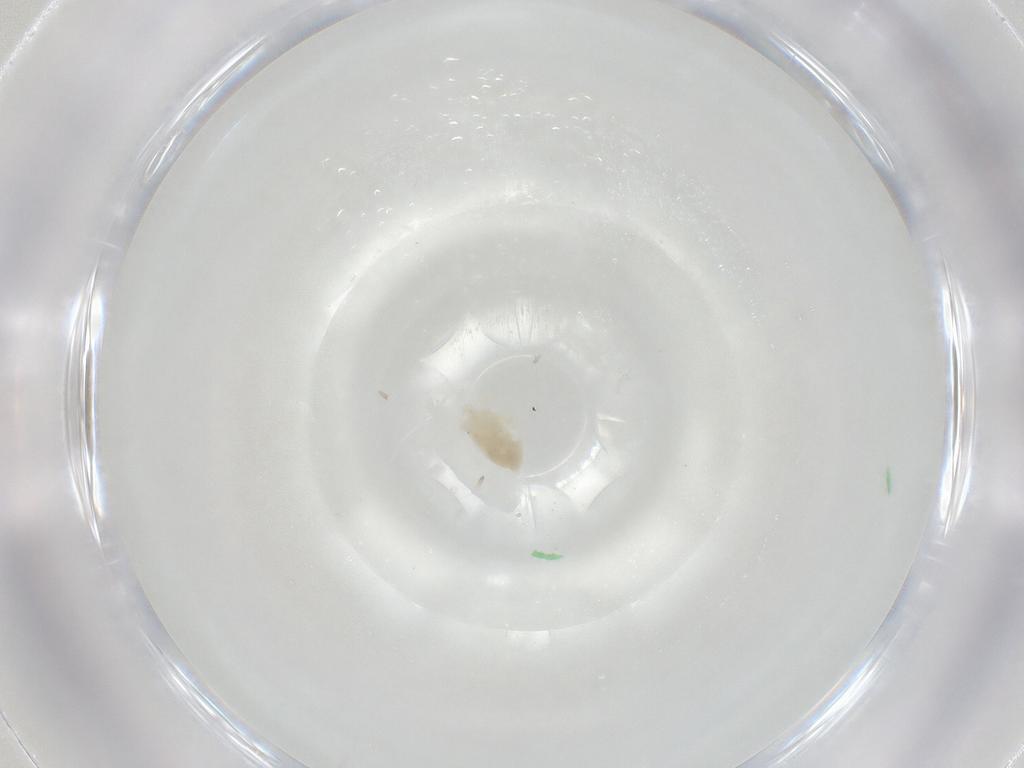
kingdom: Animalia
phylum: Arthropoda
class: Arachnida
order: Trombidiformes
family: Anystidae
